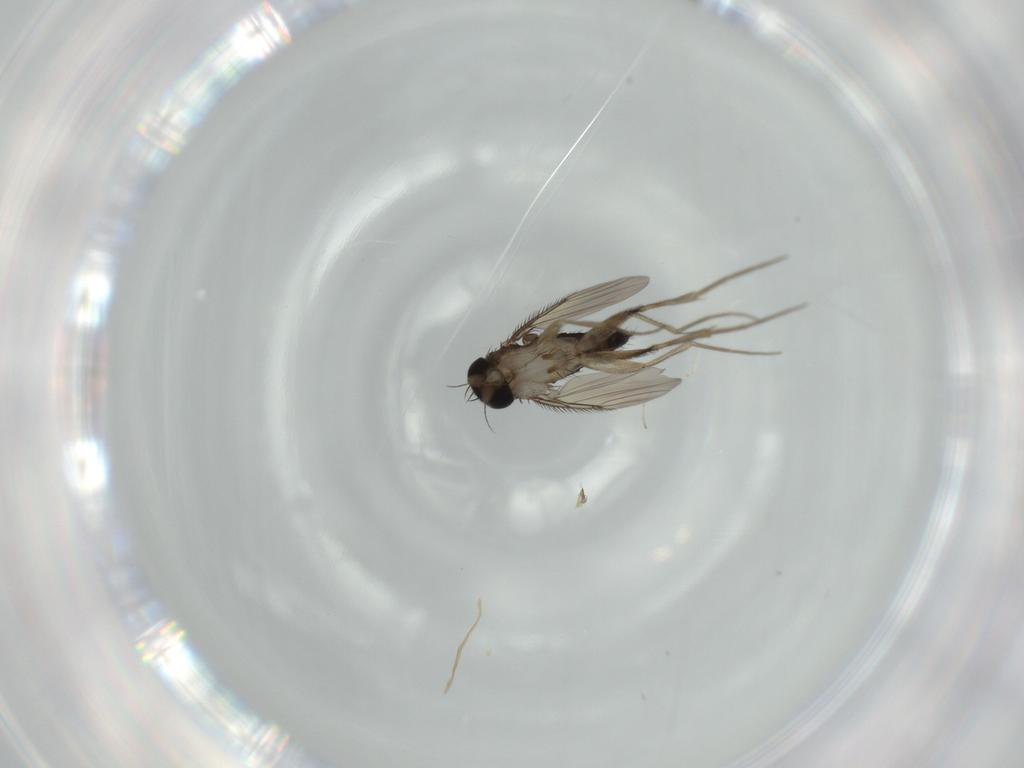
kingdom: Animalia
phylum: Arthropoda
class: Insecta
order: Diptera
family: Phoridae
